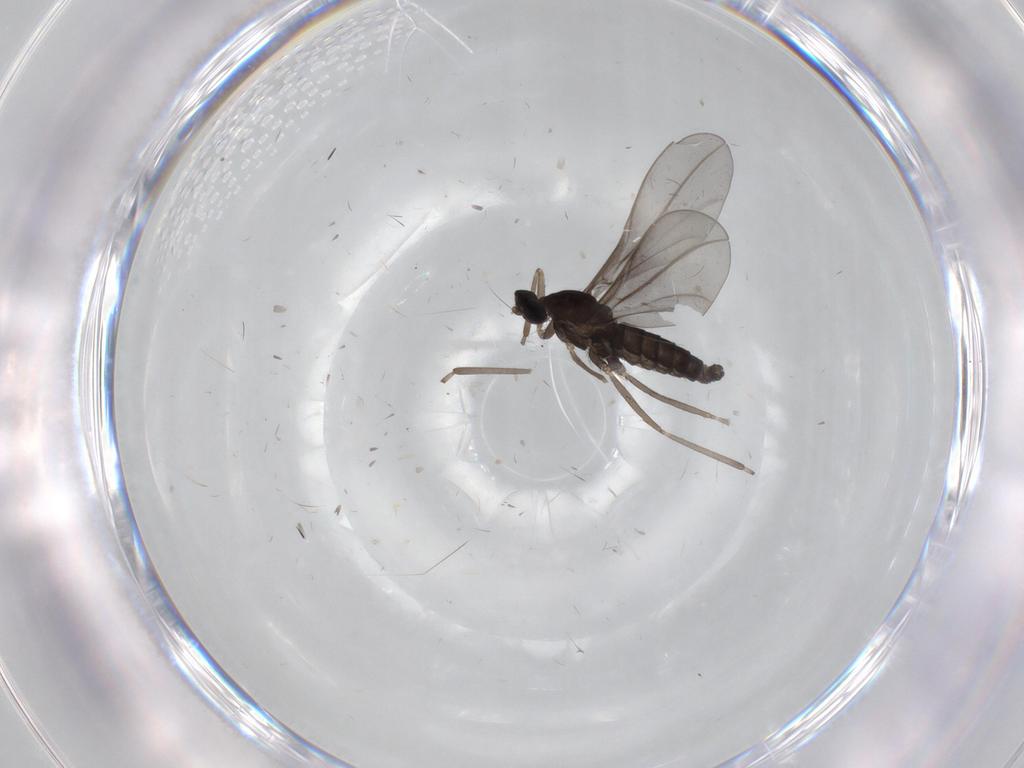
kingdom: Animalia
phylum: Arthropoda
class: Insecta
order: Diptera
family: Cecidomyiidae
